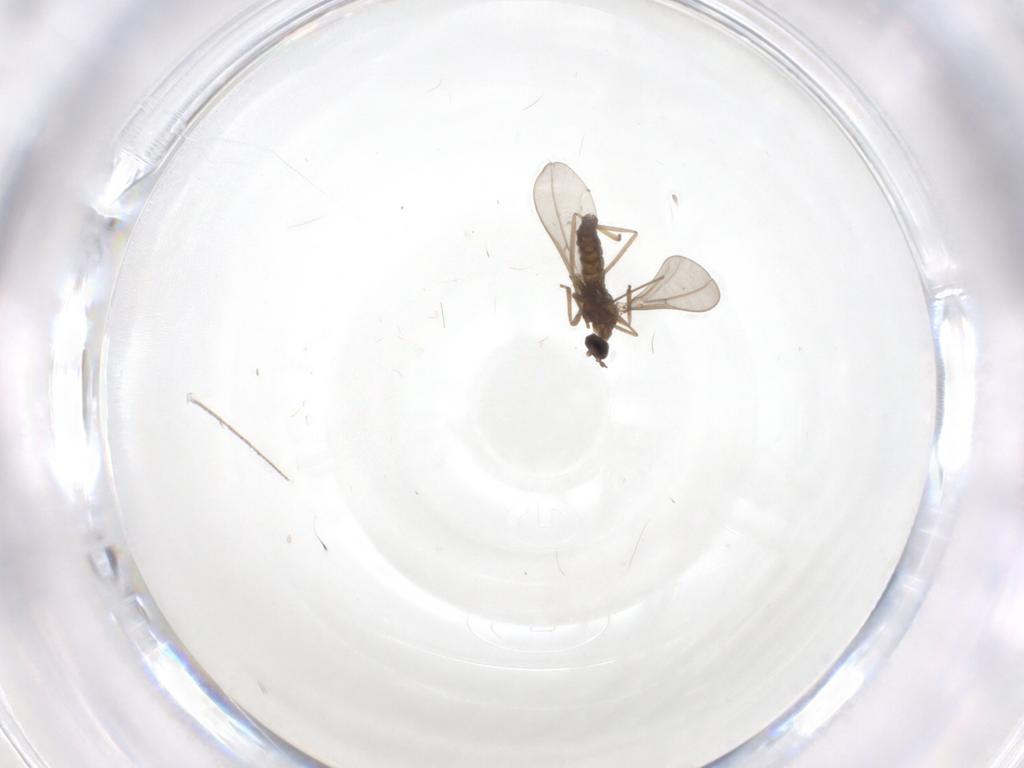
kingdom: Animalia
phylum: Arthropoda
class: Insecta
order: Diptera
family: Cecidomyiidae
